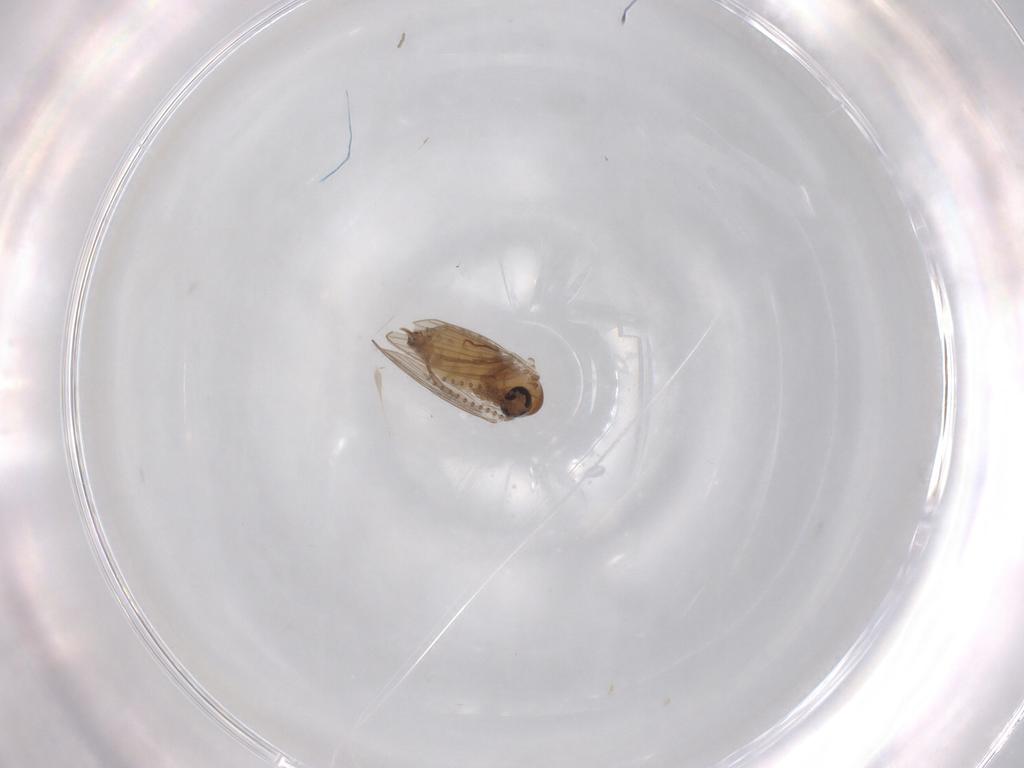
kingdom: Animalia
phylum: Arthropoda
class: Insecta
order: Diptera
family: Psychodidae
